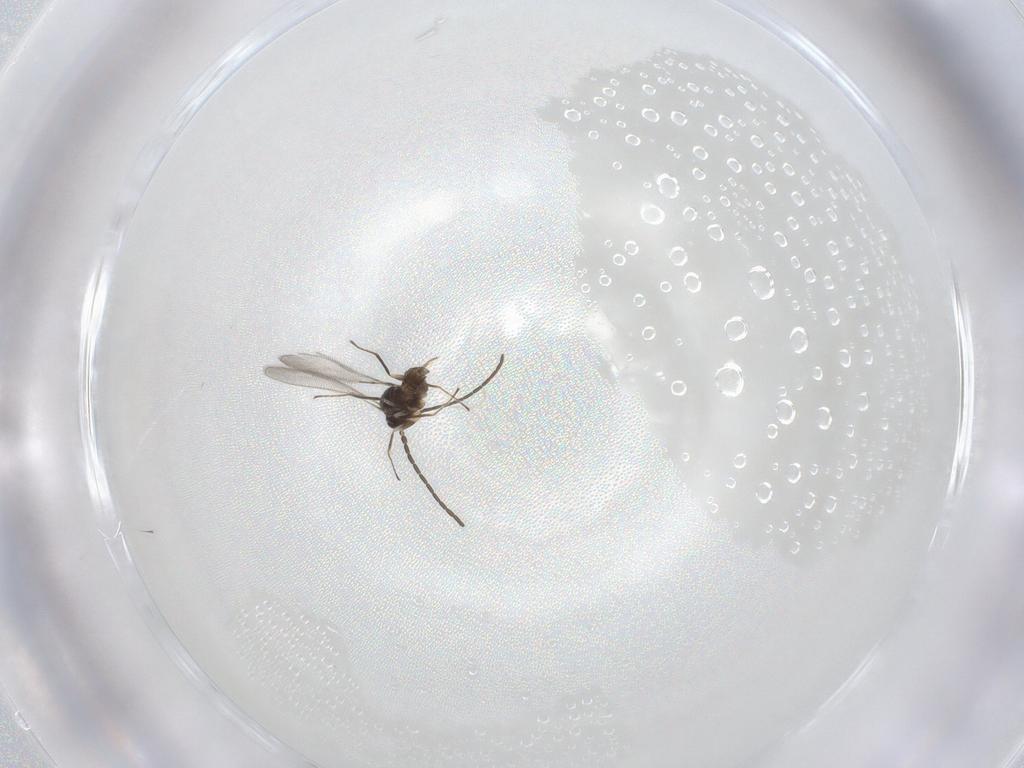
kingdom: Animalia
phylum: Arthropoda
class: Insecta
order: Hymenoptera
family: Mymaridae
